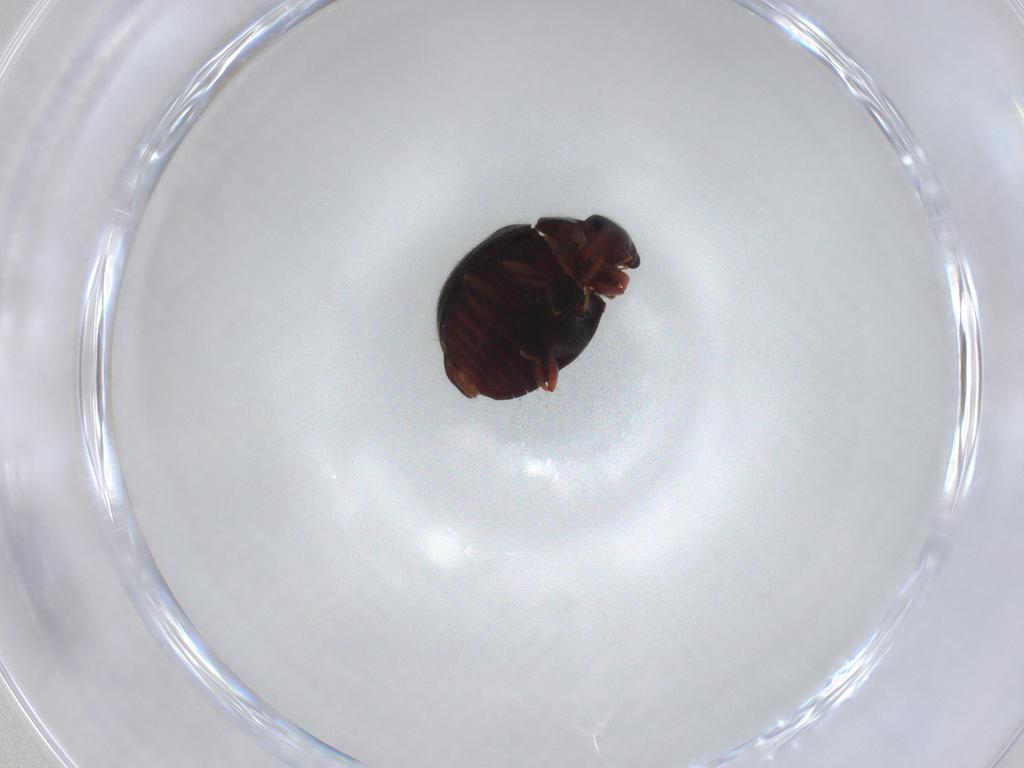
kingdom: Animalia
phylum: Arthropoda
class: Insecta
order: Coleoptera
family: Sphindidae
